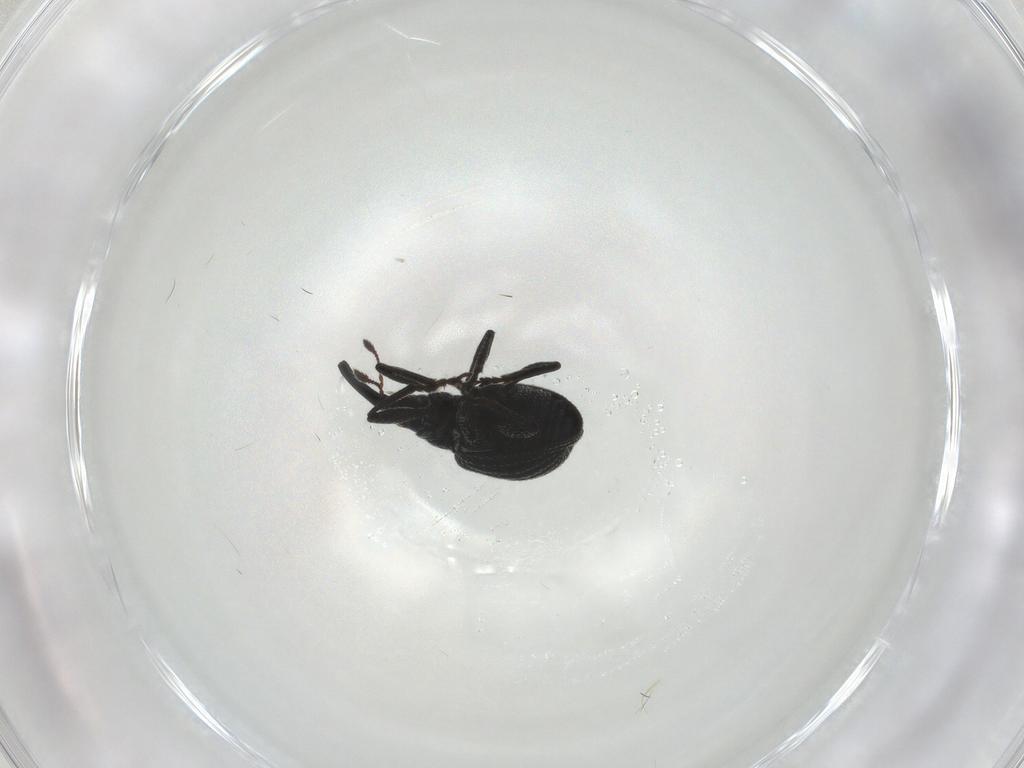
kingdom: Animalia
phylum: Arthropoda
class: Insecta
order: Coleoptera
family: Brentidae
